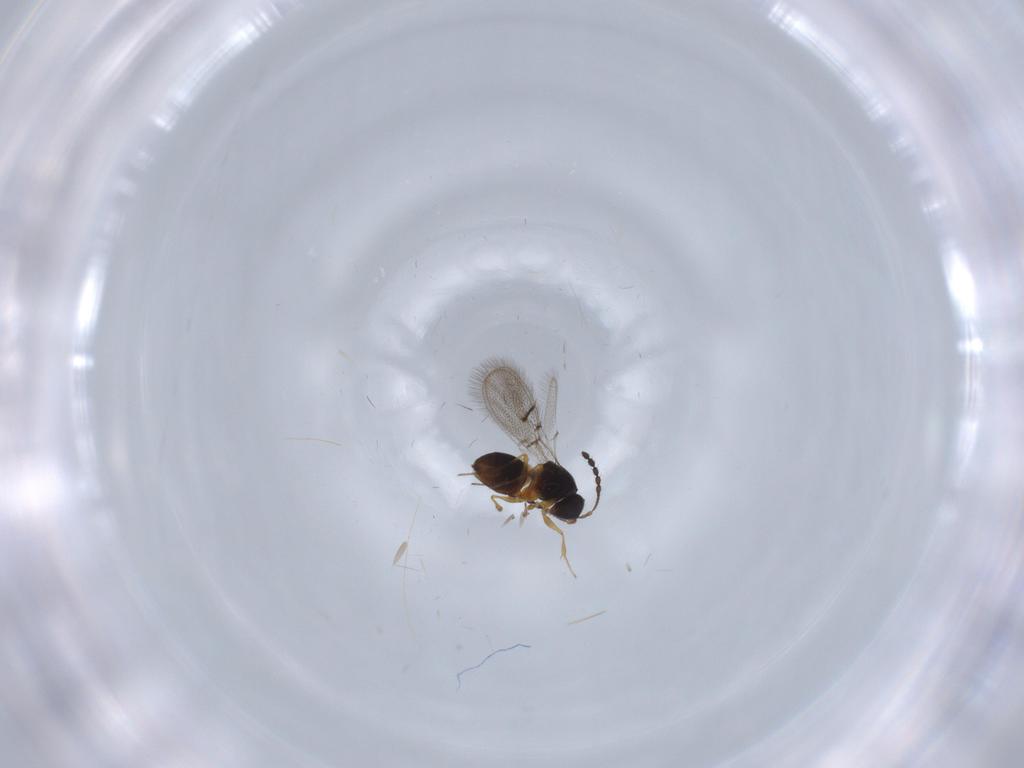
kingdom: Animalia
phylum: Arthropoda
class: Insecta
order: Hymenoptera
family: Figitidae
